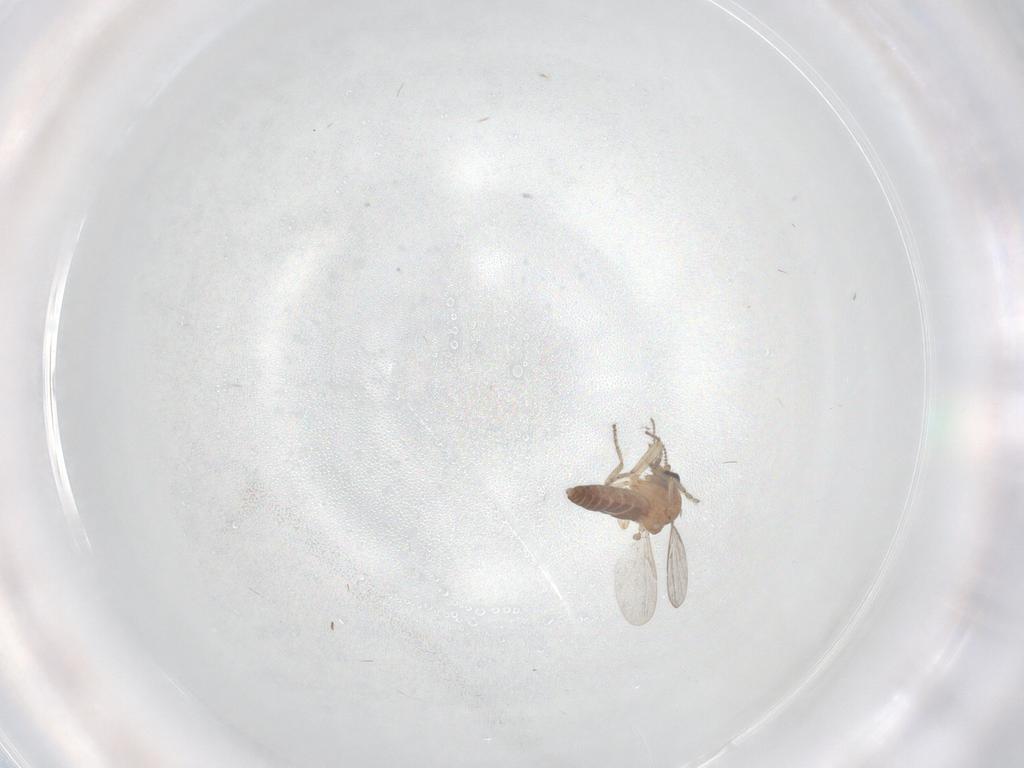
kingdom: Animalia
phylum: Arthropoda
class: Insecta
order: Diptera
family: Ceratopogonidae
